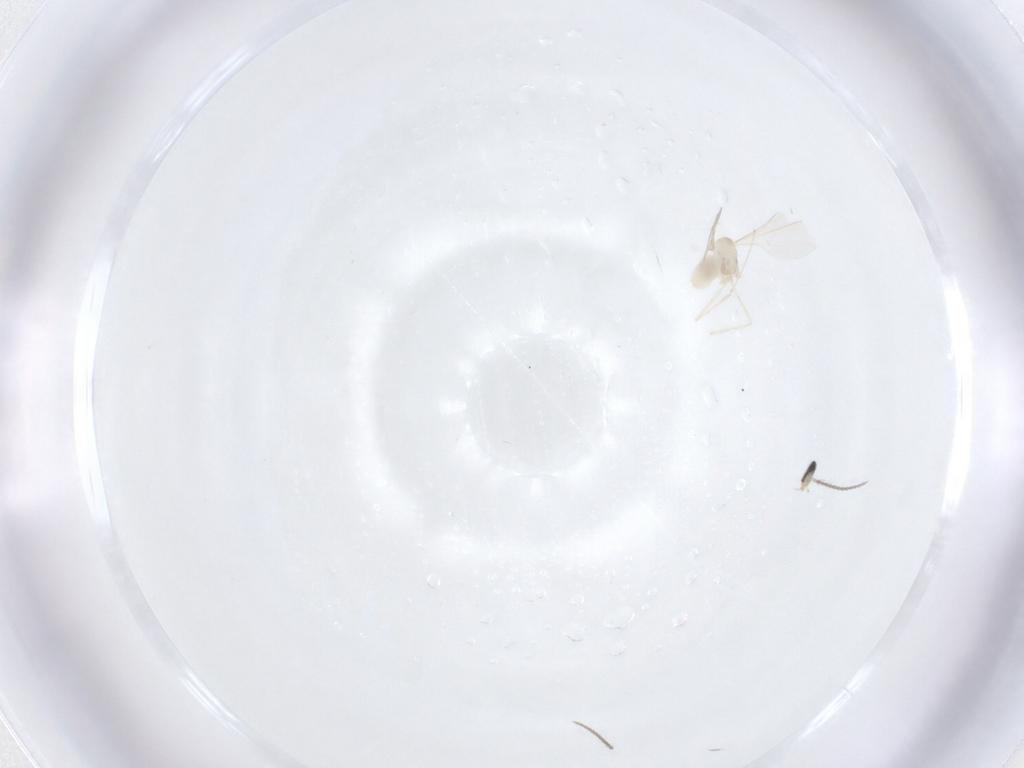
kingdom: Animalia
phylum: Arthropoda
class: Insecta
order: Diptera
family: Cecidomyiidae
